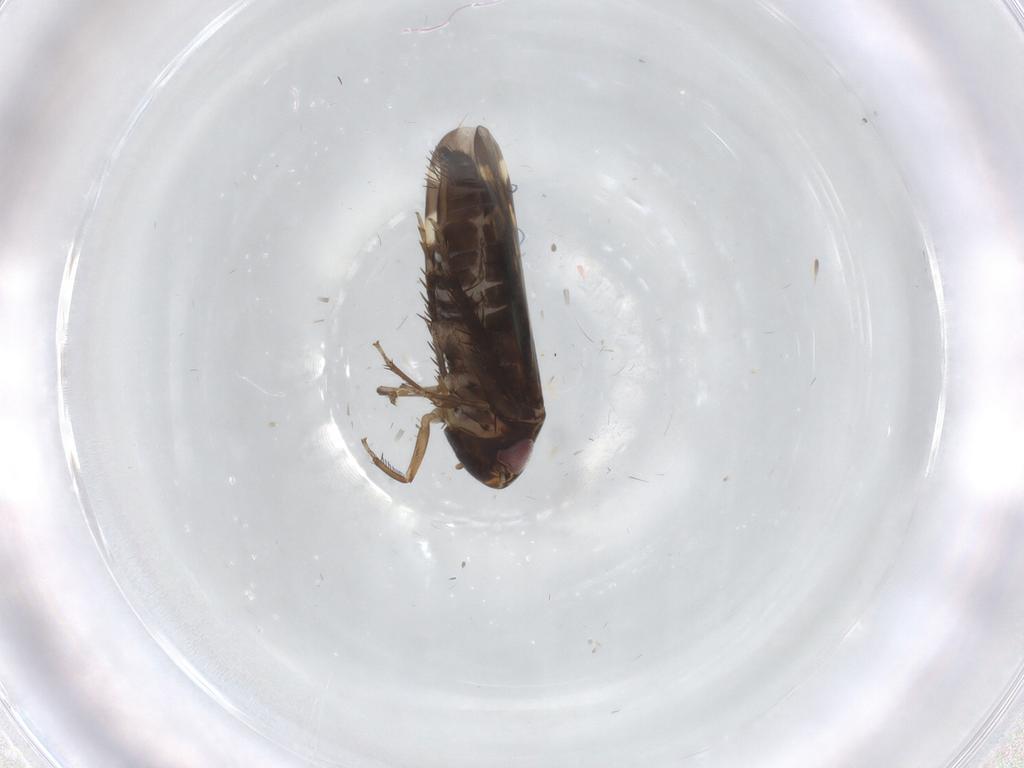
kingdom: Animalia
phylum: Arthropoda
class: Insecta
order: Hemiptera
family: Cicadellidae
